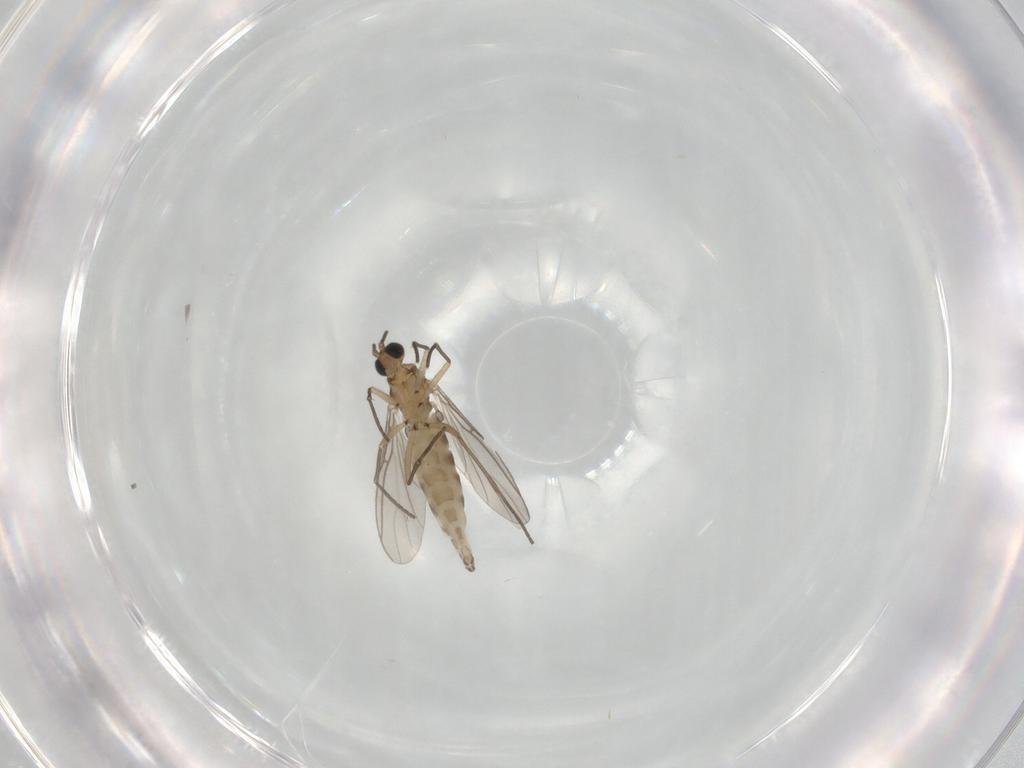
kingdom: Animalia
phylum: Arthropoda
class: Insecta
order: Diptera
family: Sciaridae
